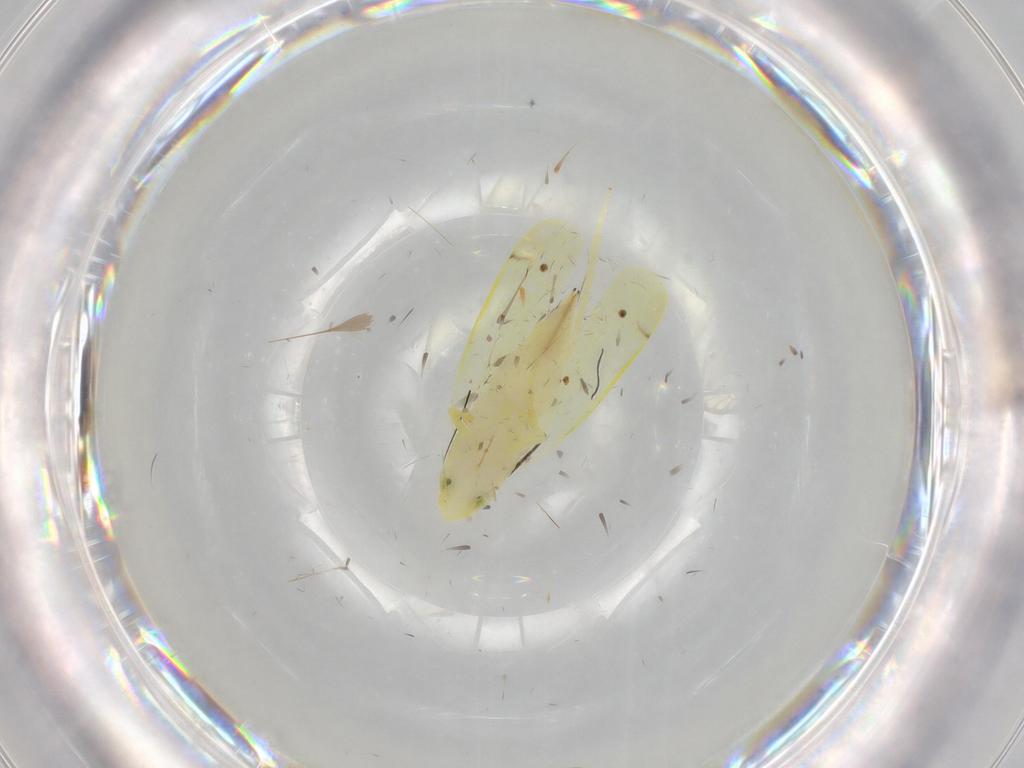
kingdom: Animalia
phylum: Arthropoda
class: Insecta
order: Hemiptera
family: Cicadellidae
